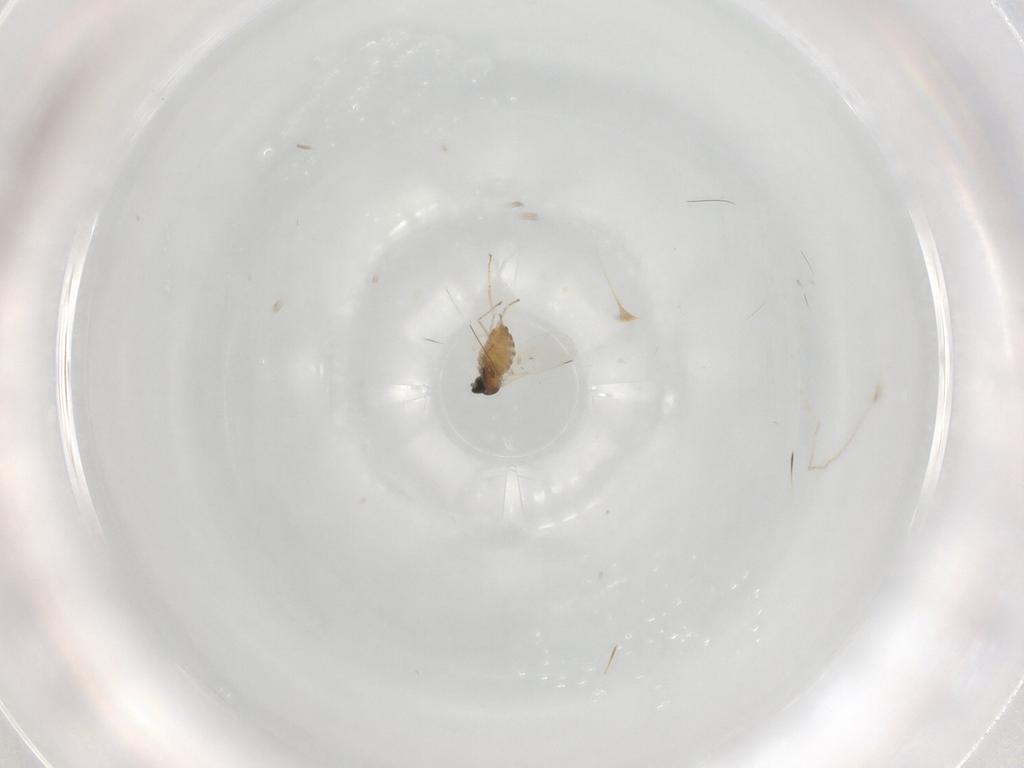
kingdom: Animalia
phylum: Arthropoda
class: Insecta
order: Diptera
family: Cecidomyiidae
